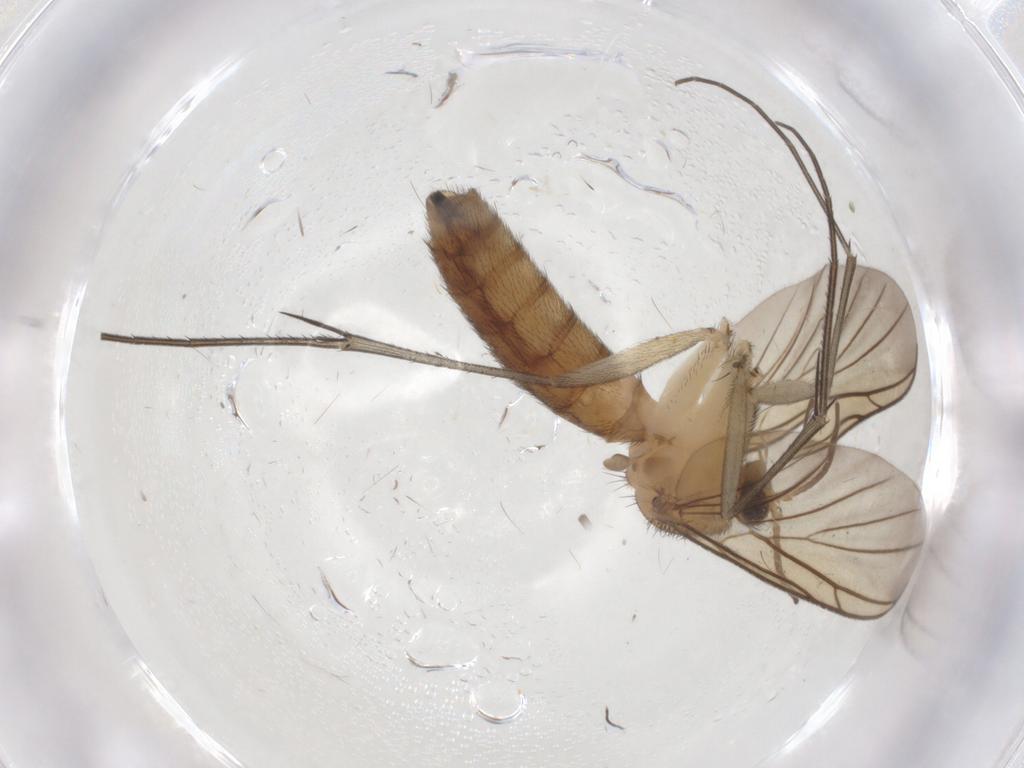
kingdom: Animalia
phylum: Arthropoda
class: Insecta
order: Diptera
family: Keroplatidae
